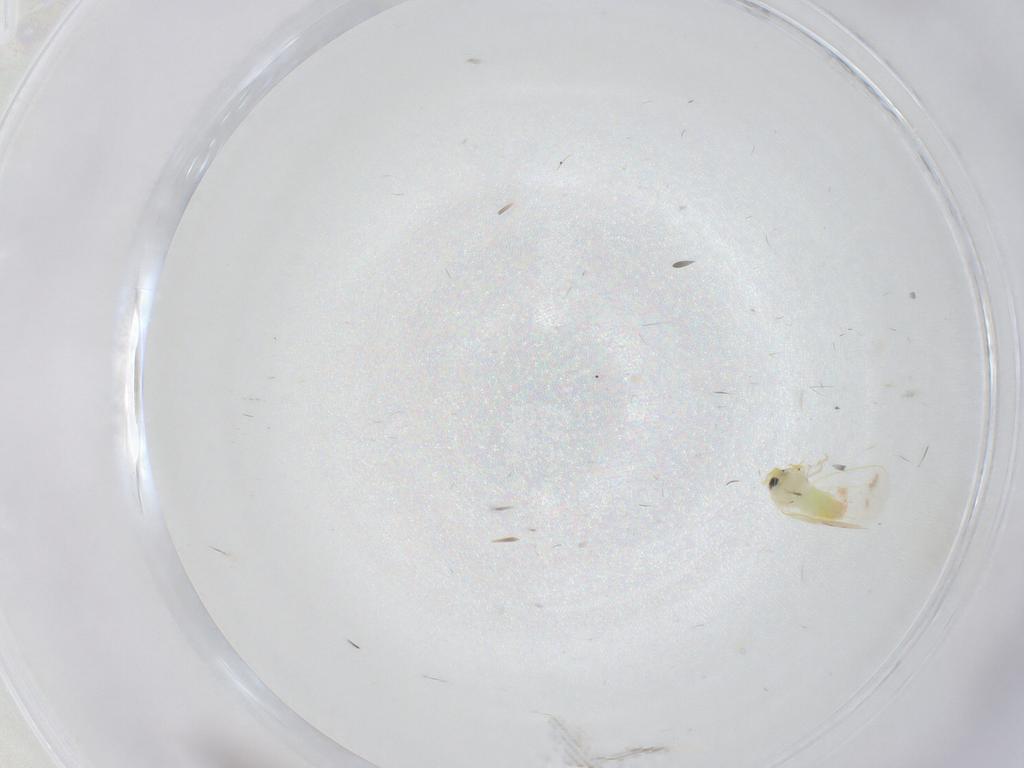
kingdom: Animalia
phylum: Arthropoda
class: Insecta
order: Hemiptera
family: Aleyrodidae
